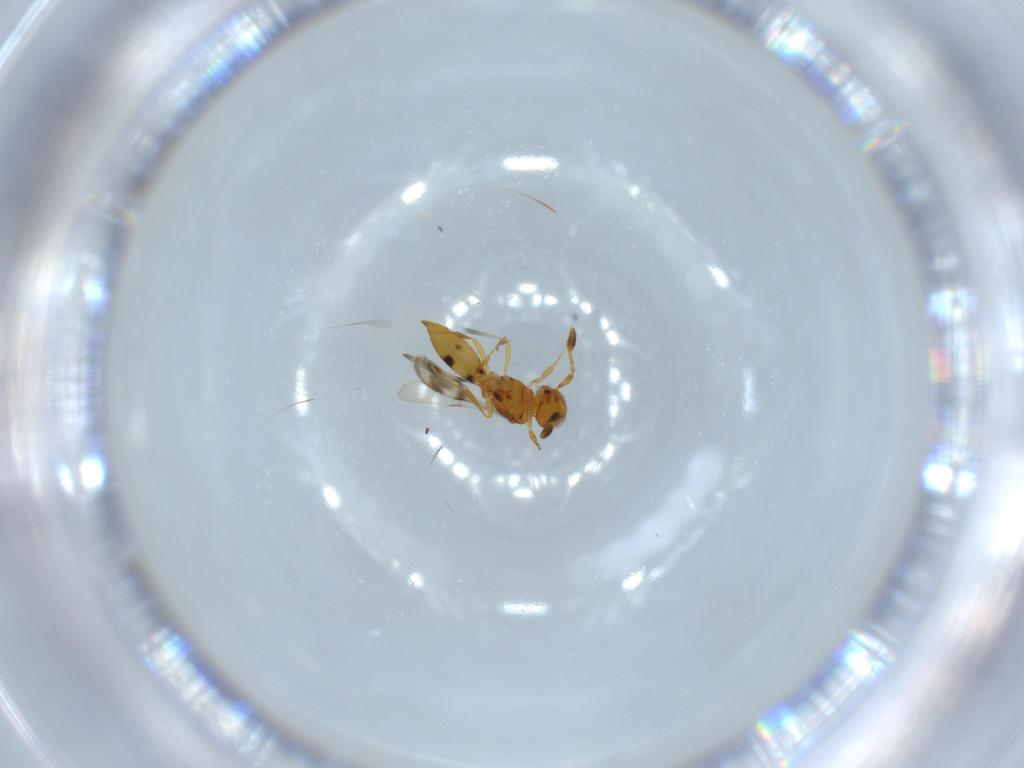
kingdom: Animalia
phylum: Arthropoda
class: Insecta
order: Hymenoptera
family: Scelionidae
